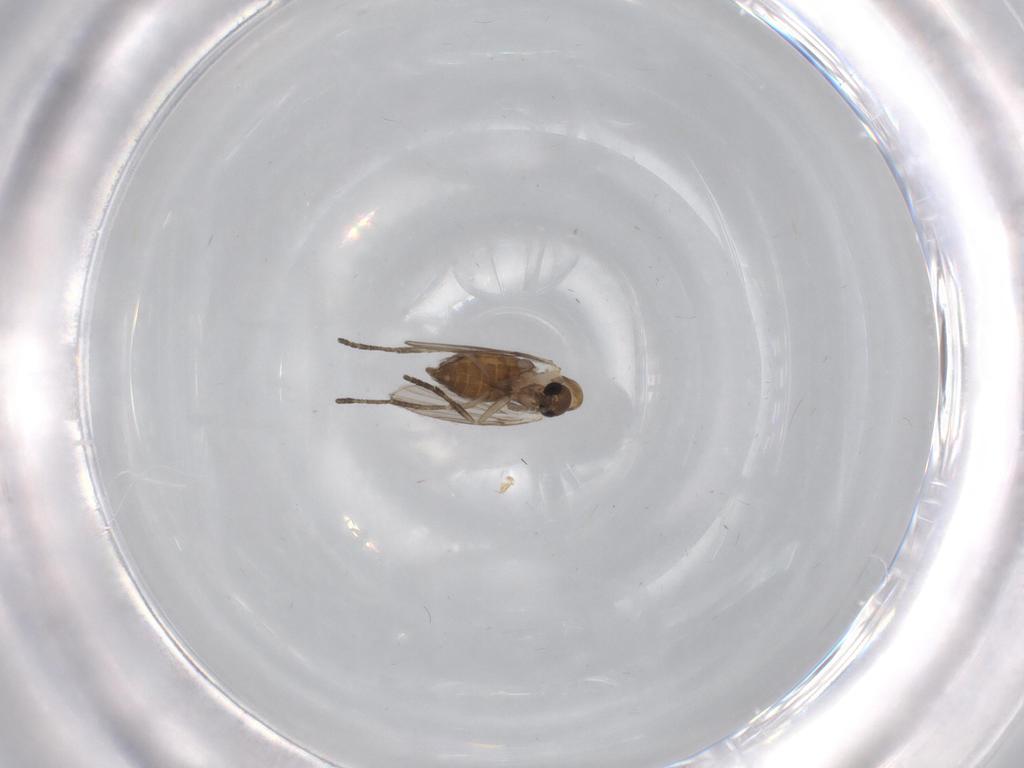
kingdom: Animalia
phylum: Arthropoda
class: Insecta
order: Diptera
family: Psychodidae
